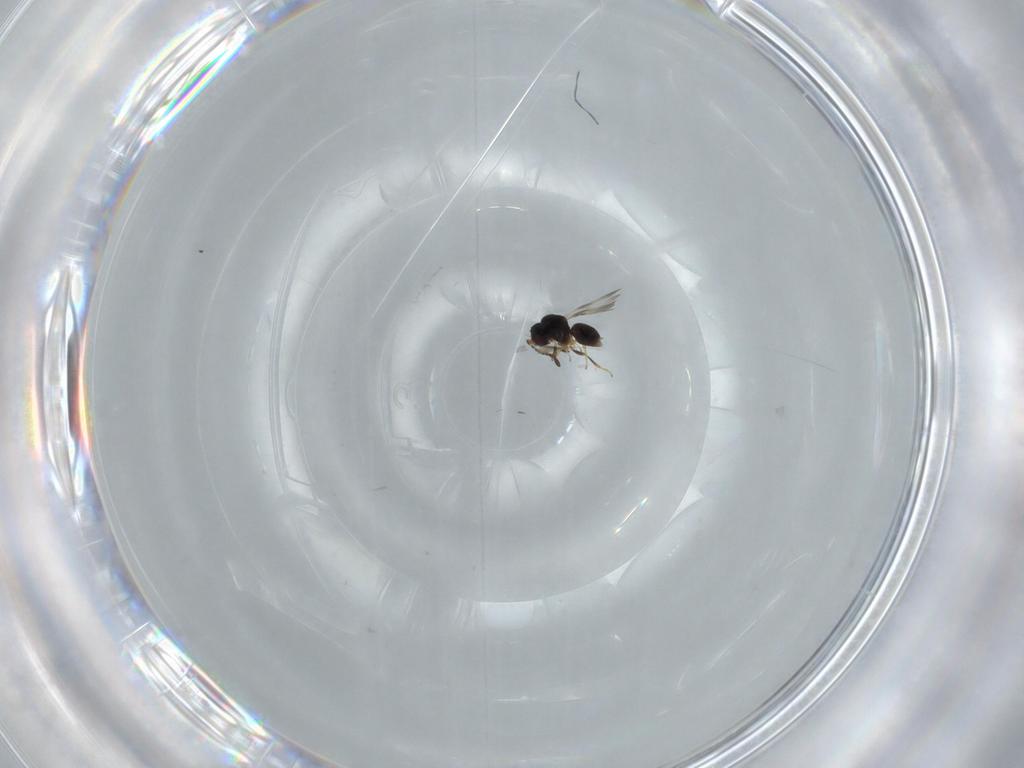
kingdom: Animalia
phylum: Arthropoda
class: Insecta
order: Hymenoptera
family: Ceraphronidae
